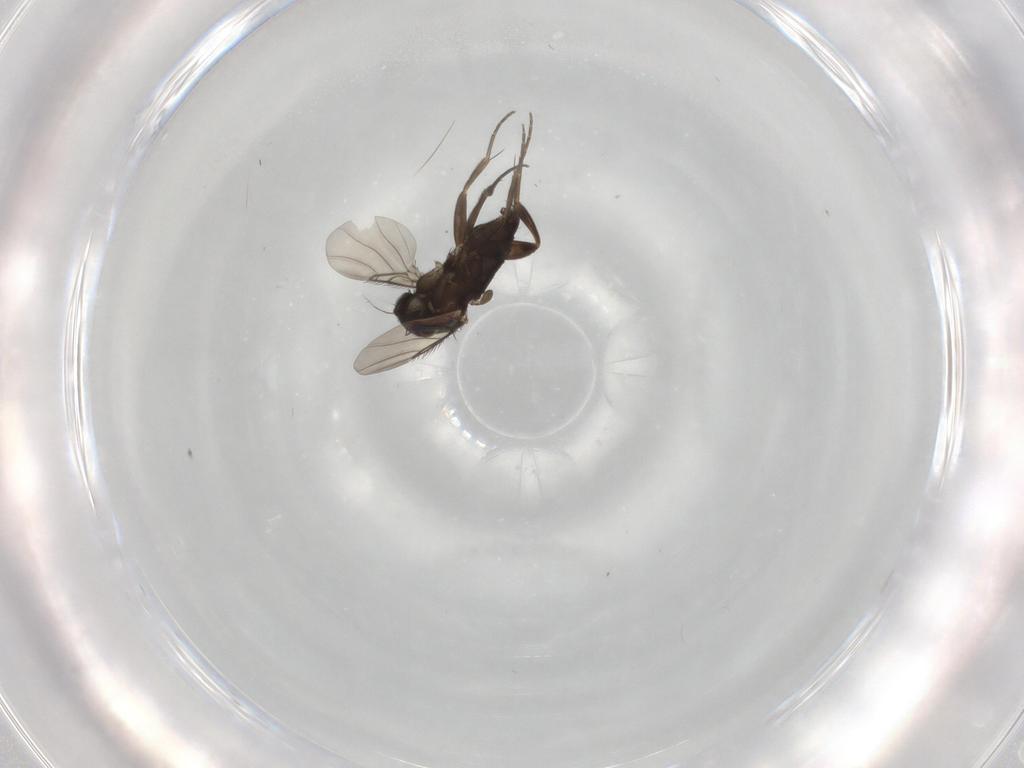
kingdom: Animalia
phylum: Arthropoda
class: Insecta
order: Diptera
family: Phoridae
